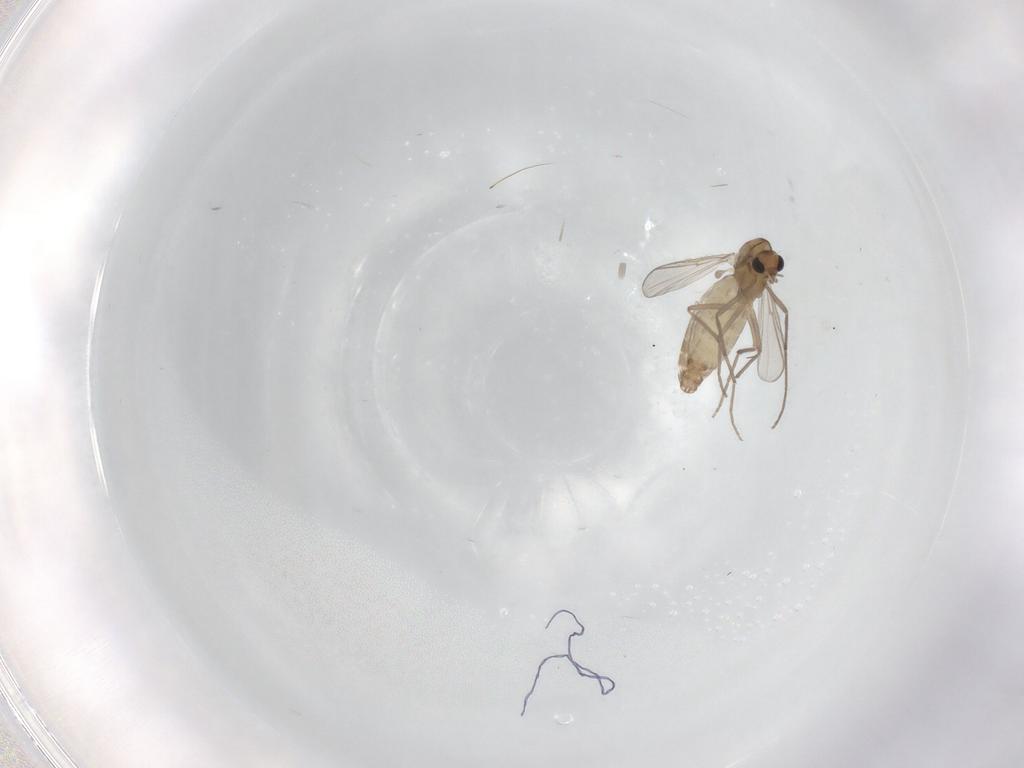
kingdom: Animalia
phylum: Arthropoda
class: Insecta
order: Diptera
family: Chironomidae
